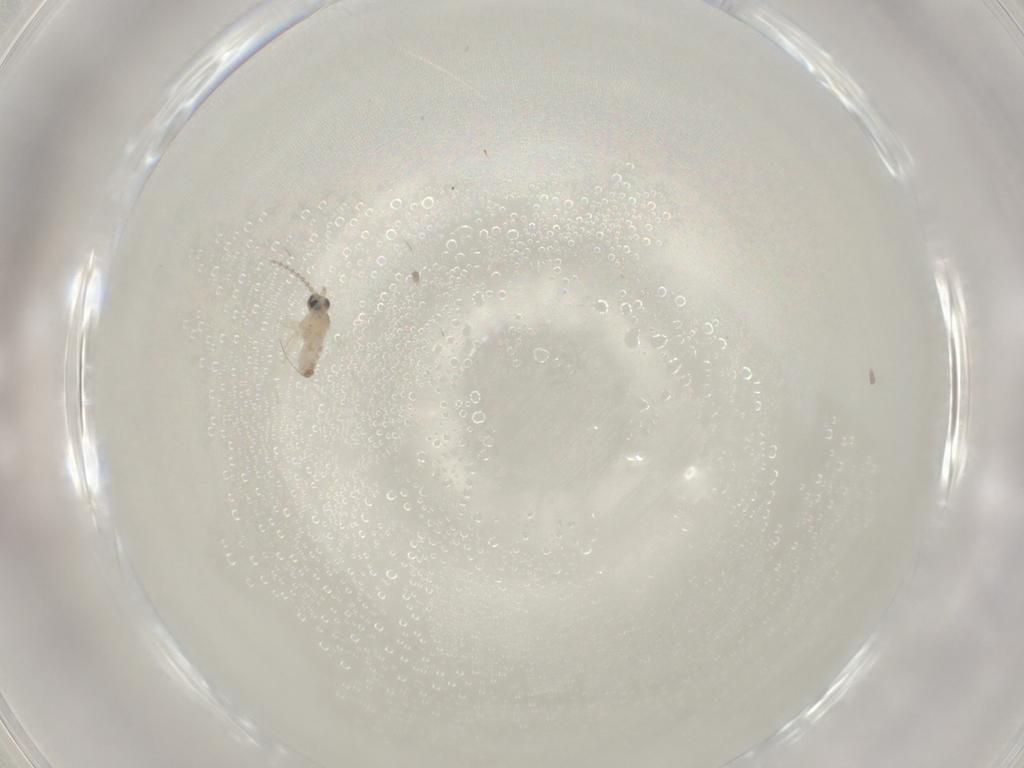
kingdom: Animalia
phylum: Arthropoda
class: Insecta
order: Diptera
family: Cecidomyiidae
